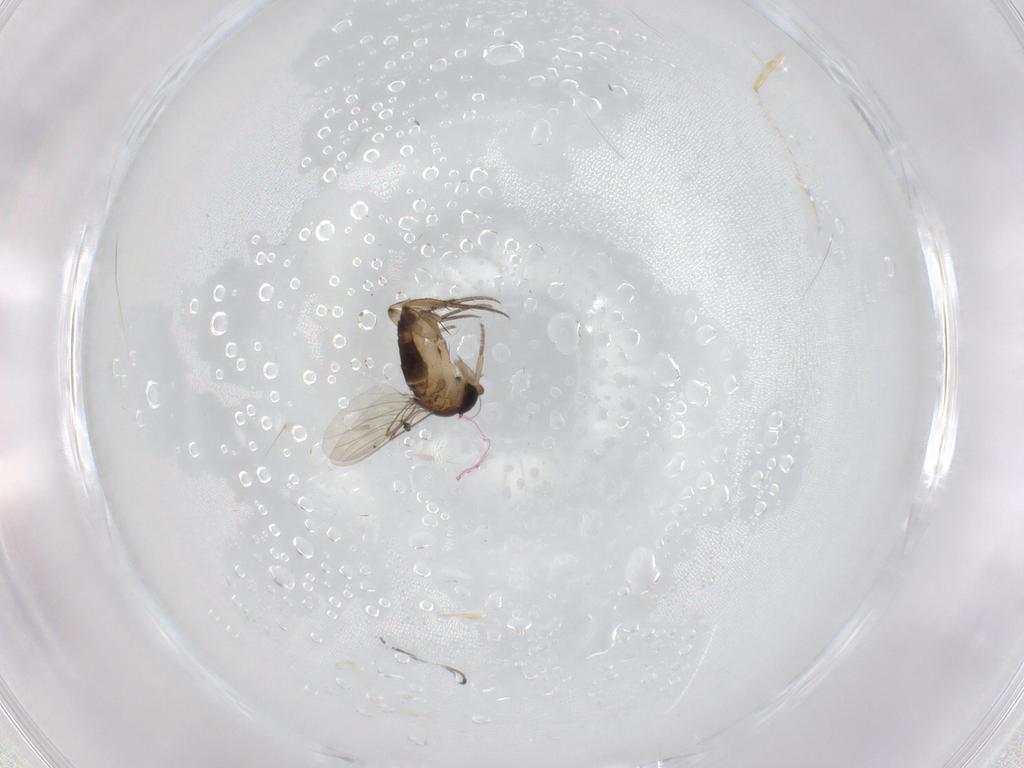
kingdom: Animalia
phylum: Arthropoda
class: Insecta
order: Diptera
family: Phoridae
